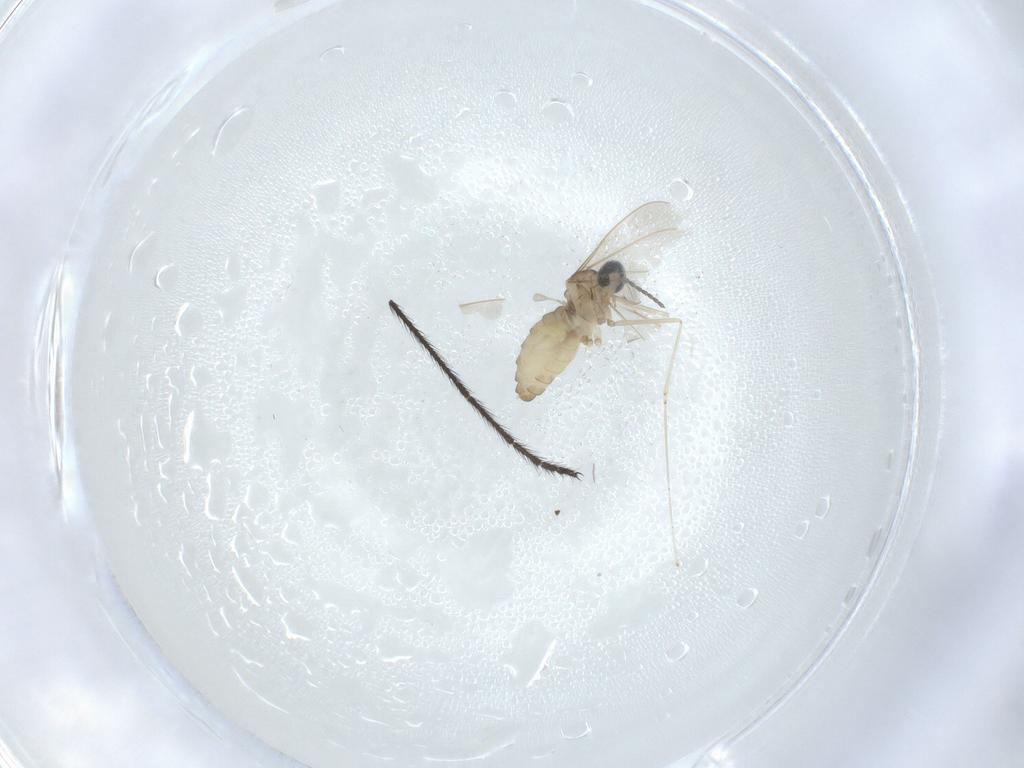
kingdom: Animalia
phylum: Arthropoda
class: Insecta
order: Diptera
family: Cecidomyiidae
